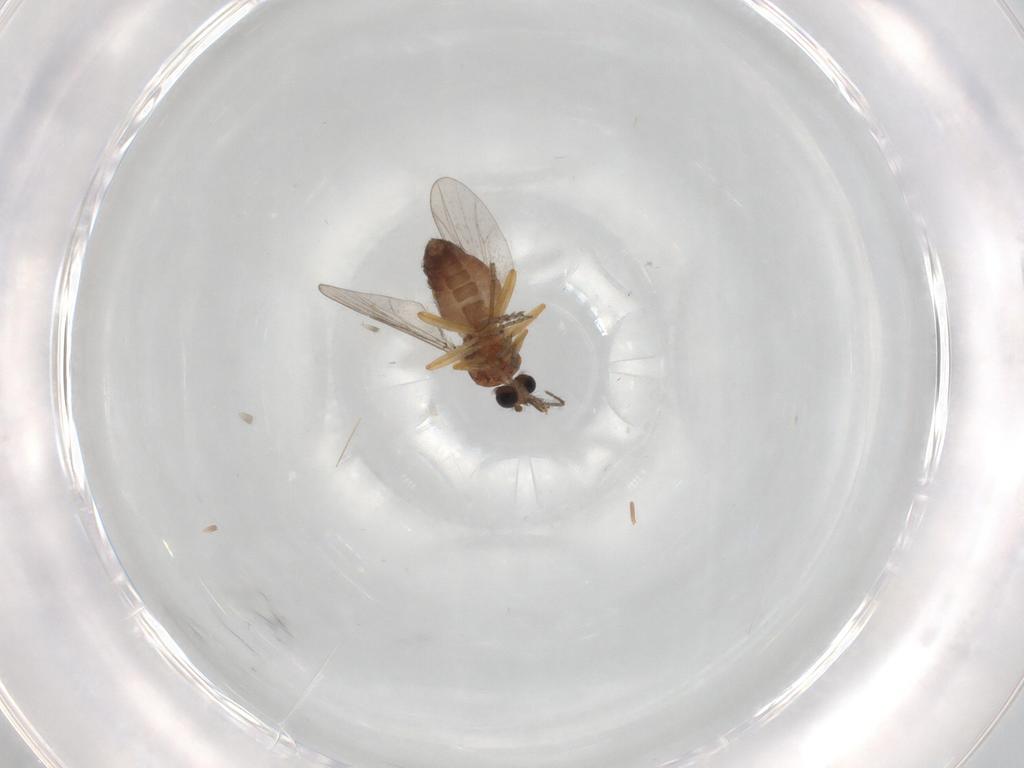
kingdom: Animalia
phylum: Arthropoda
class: Insecta
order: Diptera
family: Ceratopogonidae
